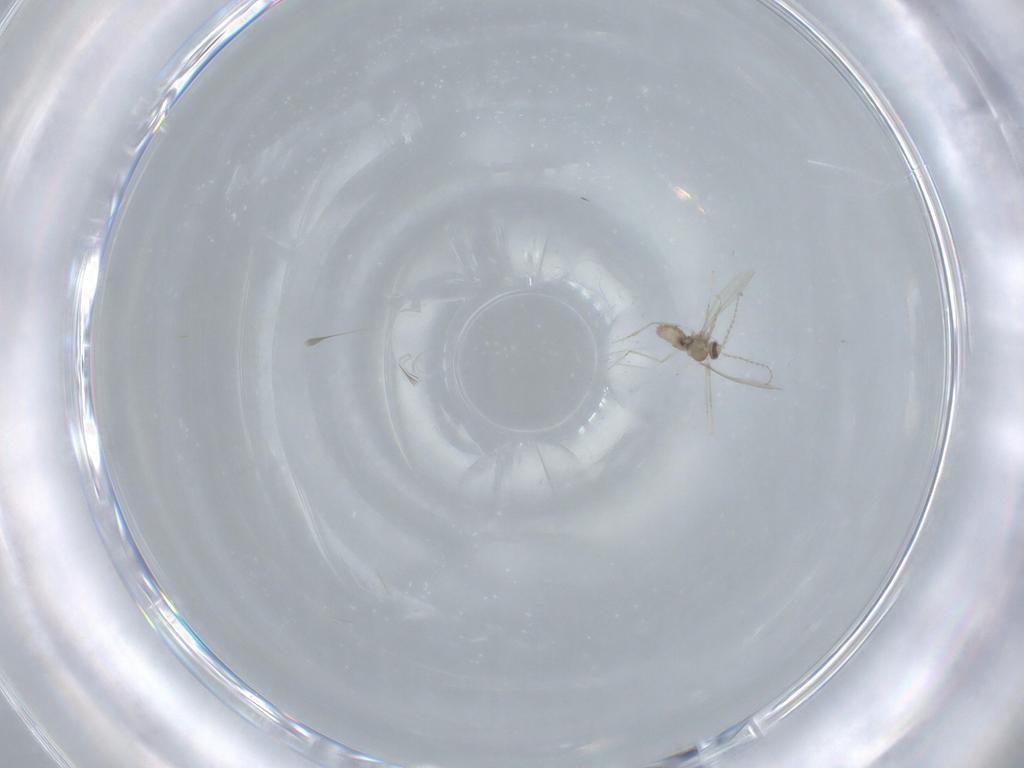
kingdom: Animalia
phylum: Arthropoda
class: Insecta
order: Diptera
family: Cecidomyiidae
